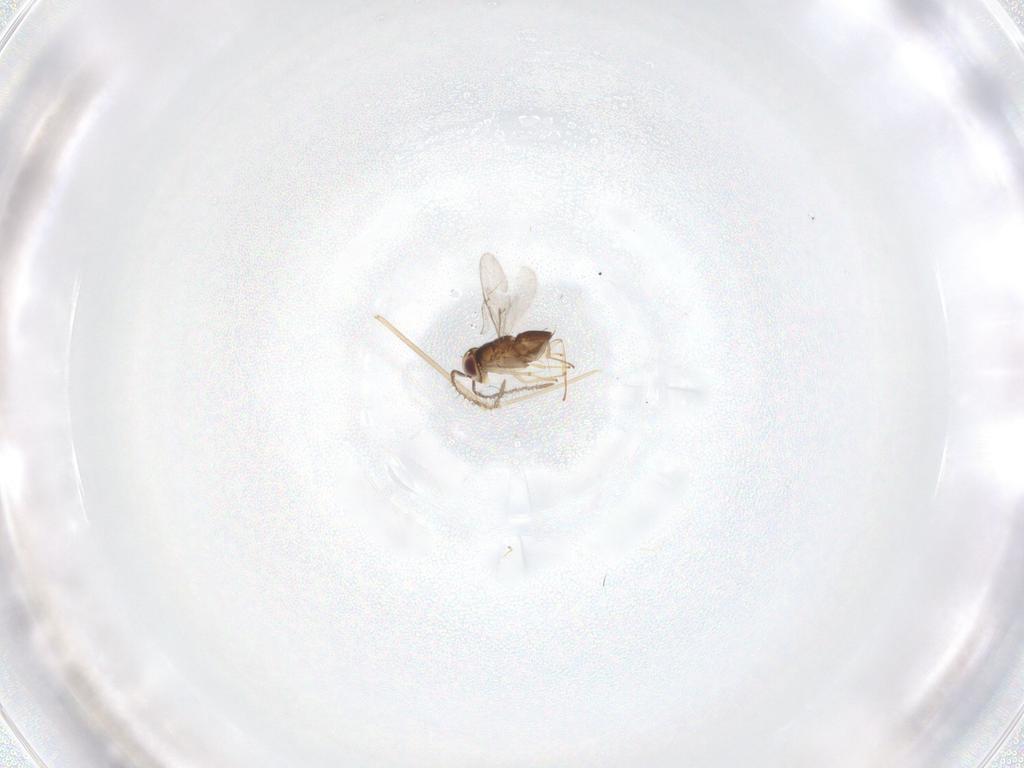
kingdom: Animalia
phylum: Arthropoda
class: Insecta
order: Hymenoptera
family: Encyrtidae
